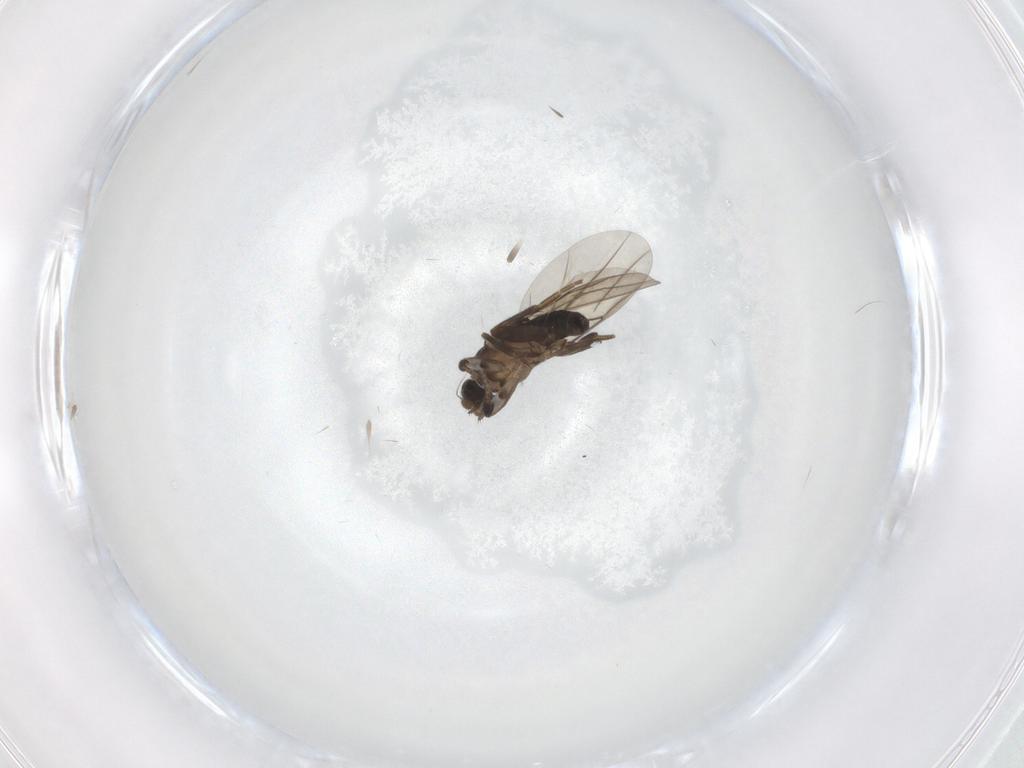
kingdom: Animalia
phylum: Arthropoda
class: Insecta
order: Diptera
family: Phoridae
